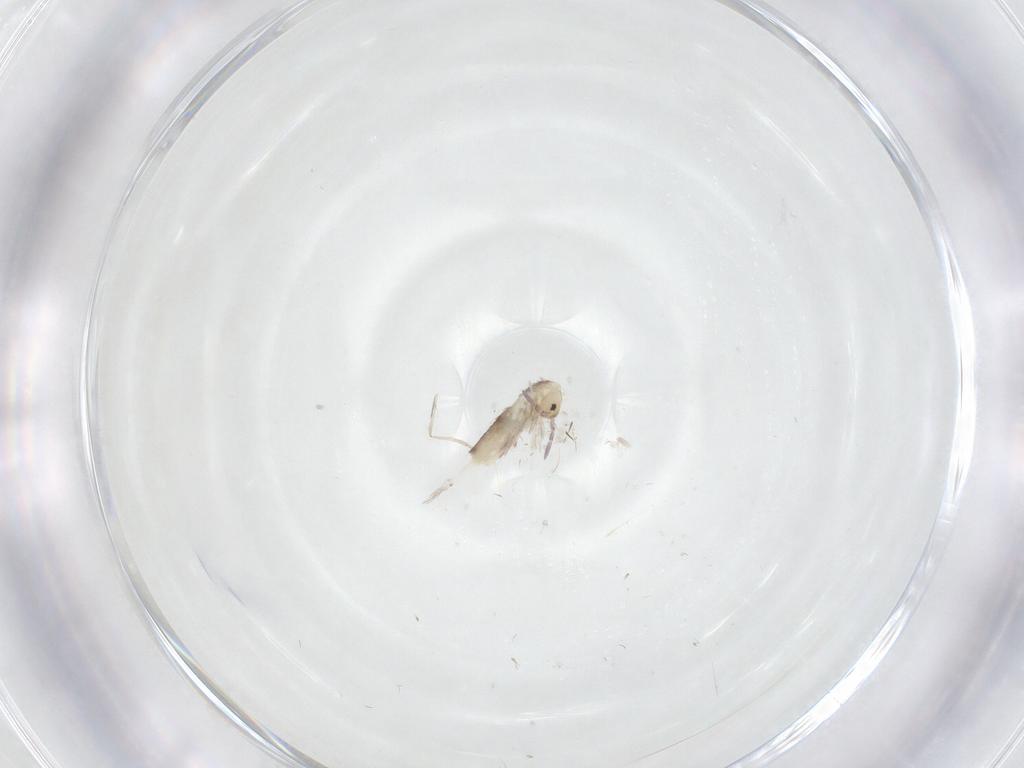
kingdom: Animalia
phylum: Arthropoda
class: Collembola
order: Entomobryomorpha
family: Entomobryidae
